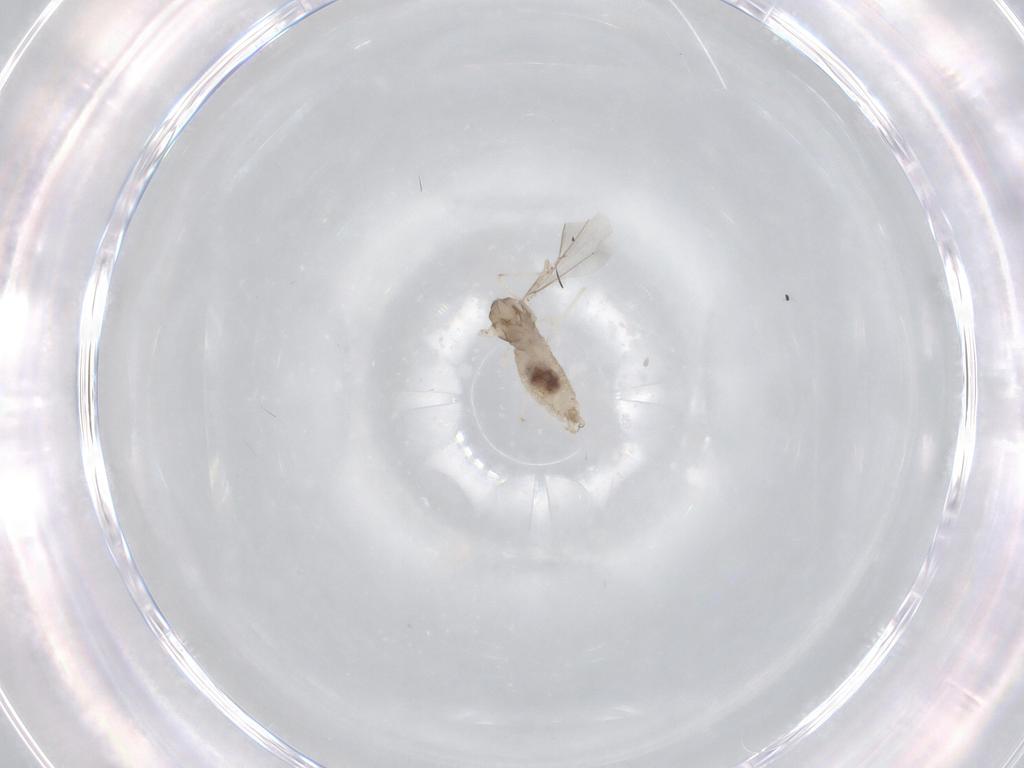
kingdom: Animalia
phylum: Arthropoda
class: Insecta
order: Diptera
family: Cecidomyiidae
